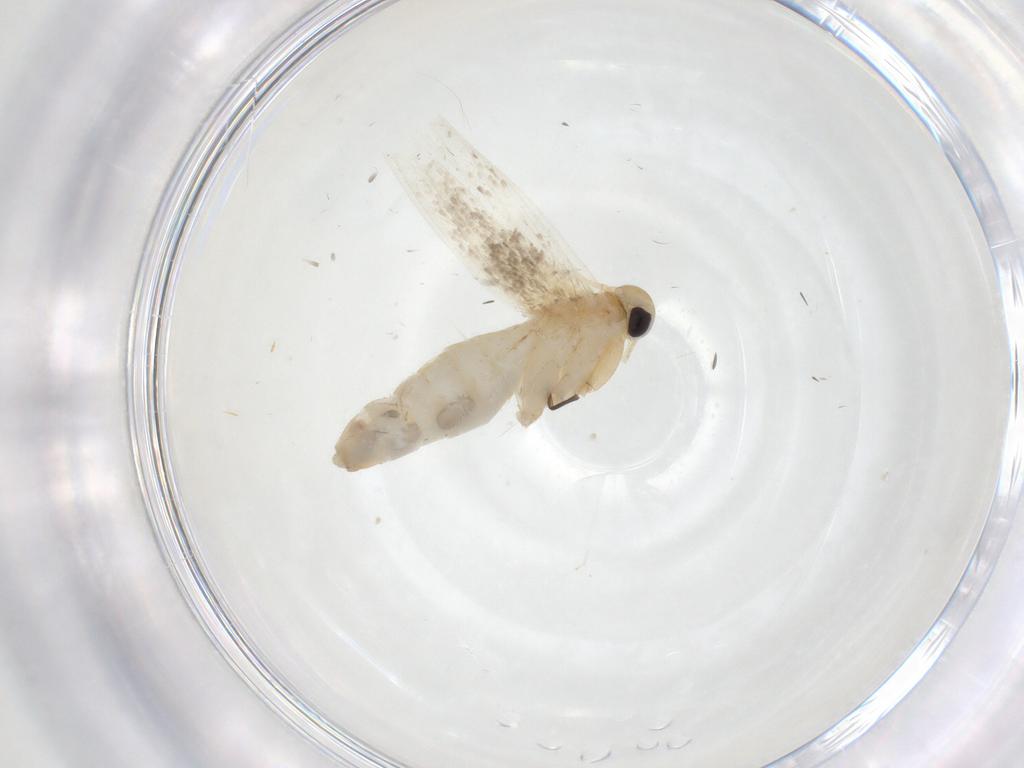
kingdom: Animalia
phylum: Arthropoda
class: Insecta
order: Lepidoptera
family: Erebidae
